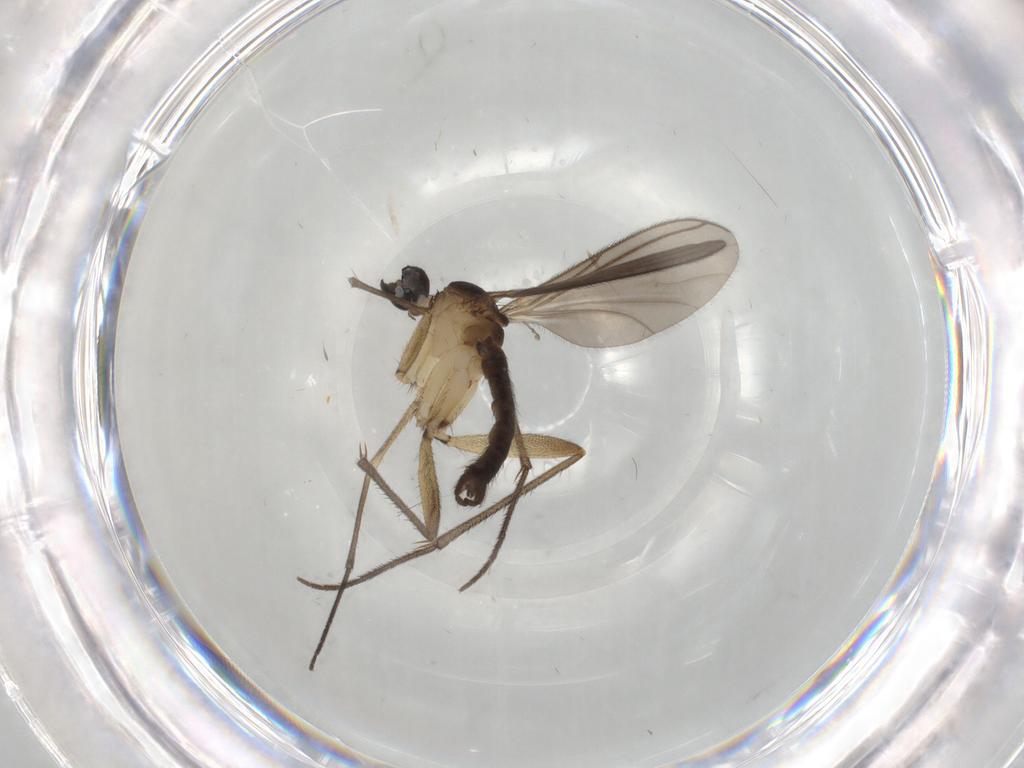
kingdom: Animalia
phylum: Arthropoda
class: Insecta
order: Diptera
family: Sciaridae
